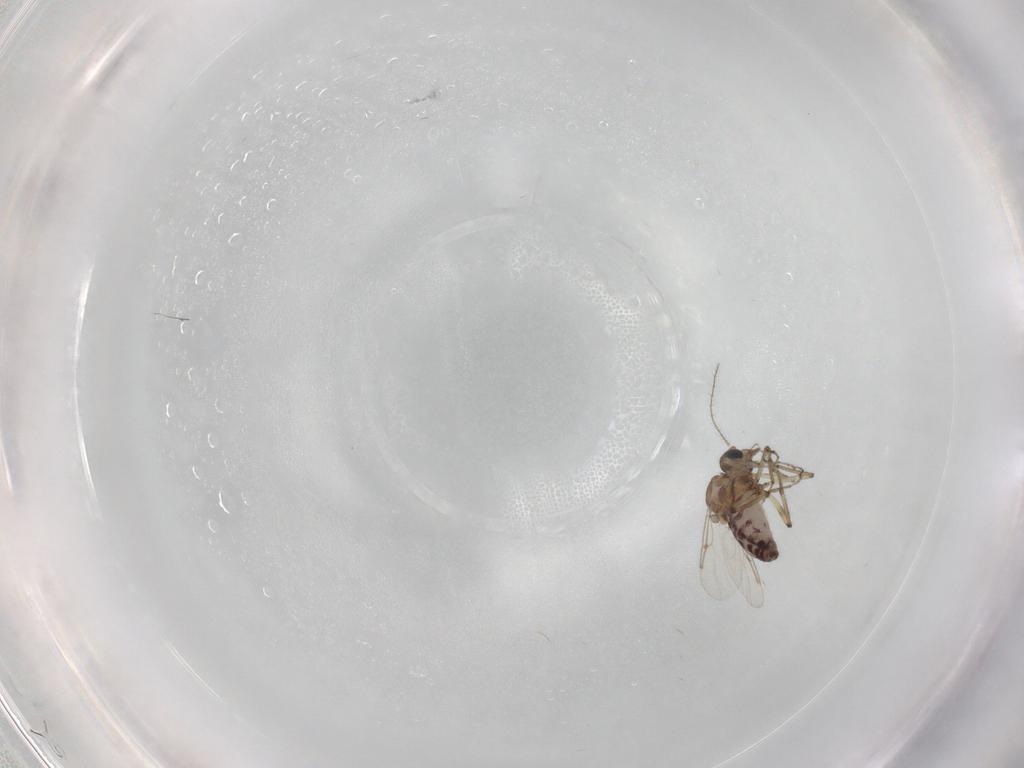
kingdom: Animalia
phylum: Arthropoda
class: Insecta
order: Diptera
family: Ceratopogonidae
